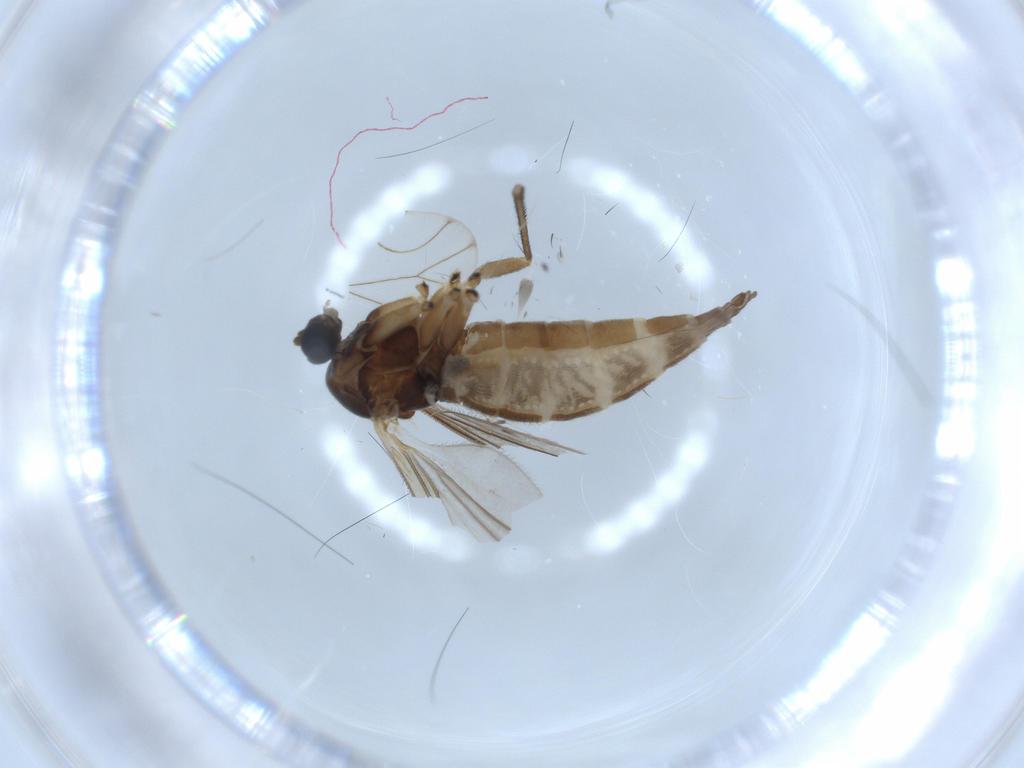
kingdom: Animalia
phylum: Arthropoda
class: Insecta
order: Diptera
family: Sciaridae
